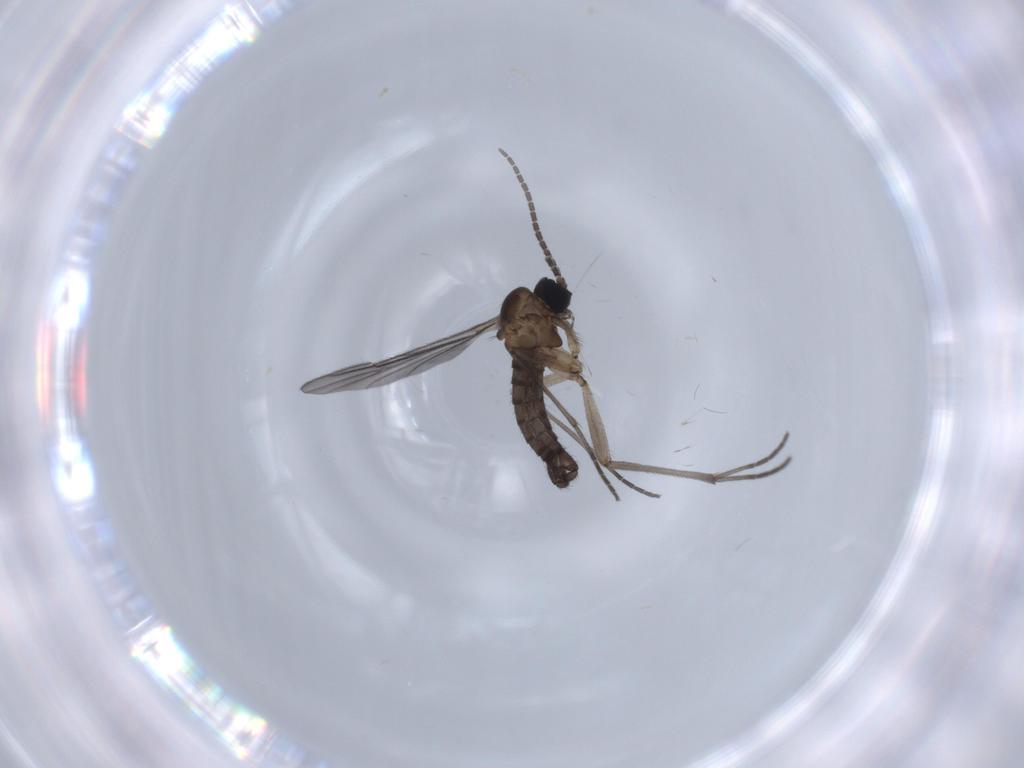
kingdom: Animalia
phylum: Arthropoda
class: Insecta
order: Diptera
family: Sciaridae
